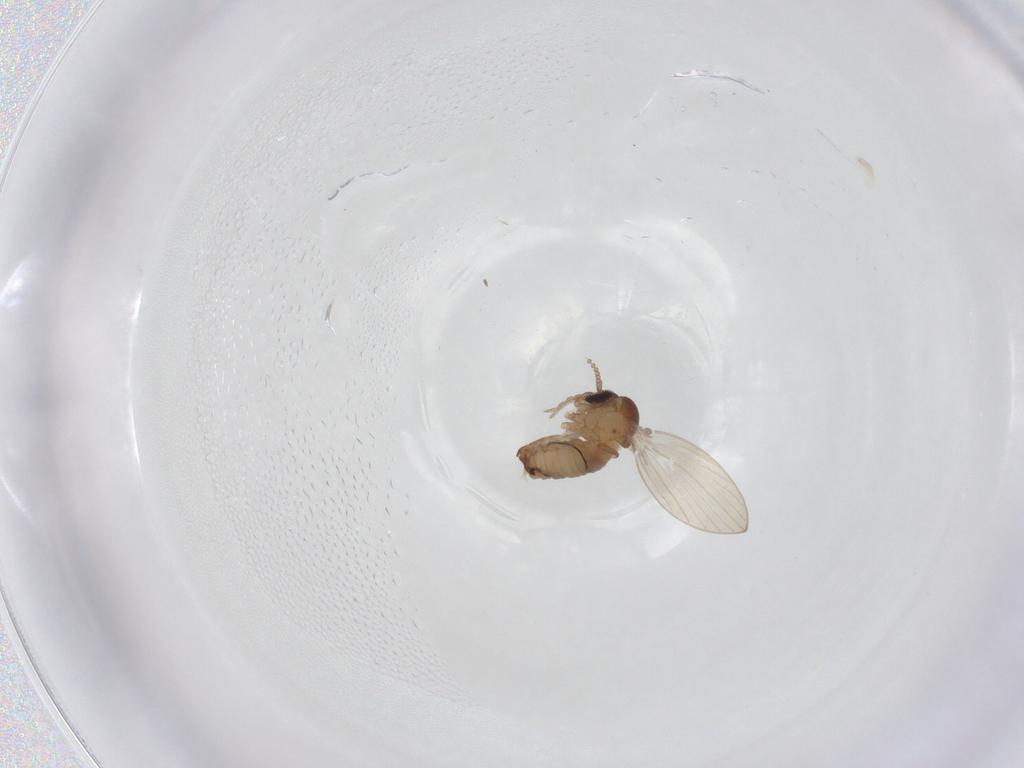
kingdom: Animalia
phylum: Arthropoda
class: Insecta
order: Diptera
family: Psychodidae
